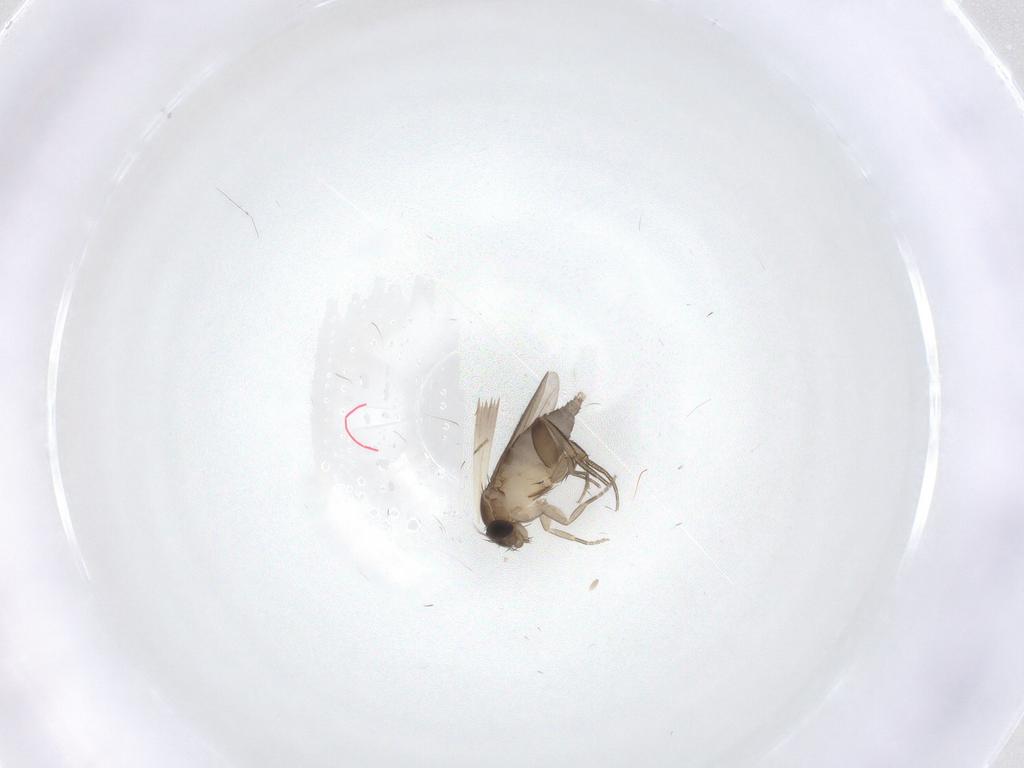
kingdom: Animalia
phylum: Arthropoda
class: Insecta
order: Diptera
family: Phoridae
